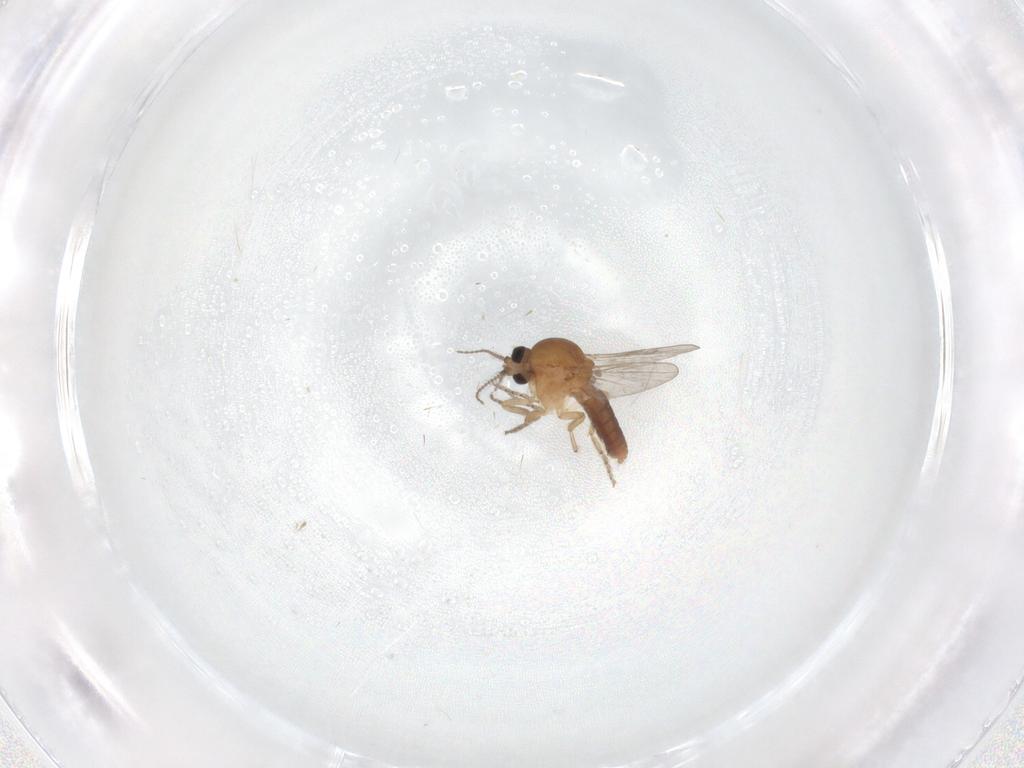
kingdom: Animalia
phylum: Arthropoda
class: Insecta
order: Diptera
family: Ceratopogonidae
